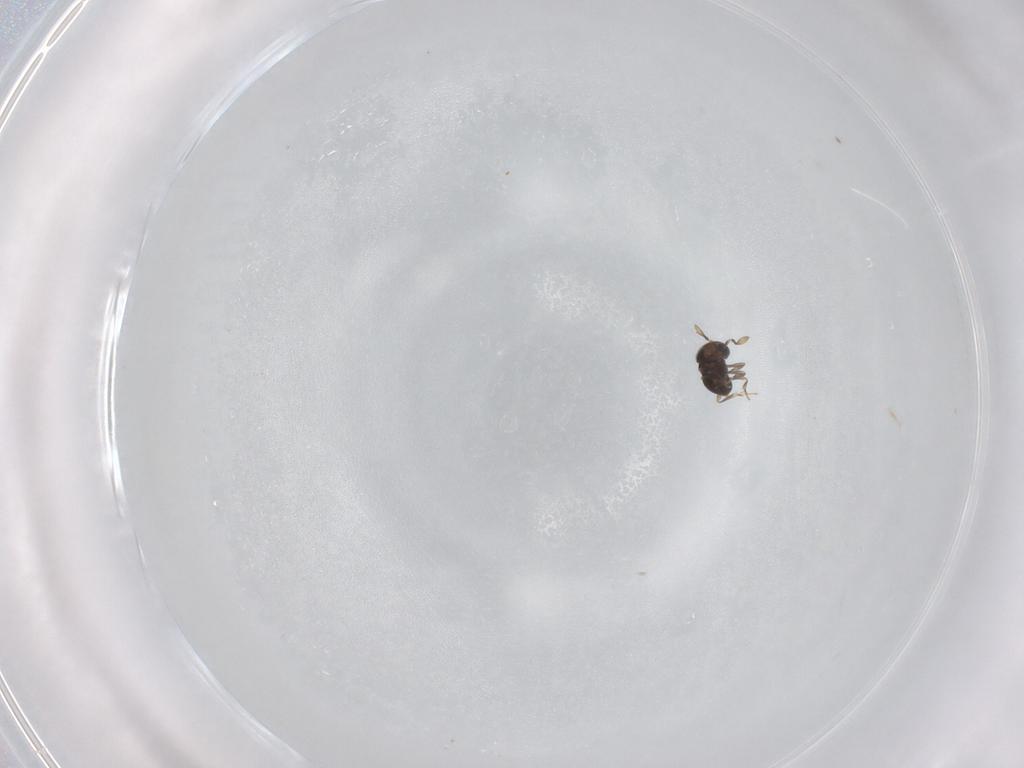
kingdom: Animalia
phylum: Arthropoda
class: Insecta
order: Hymenoptera
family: Scelionidae
